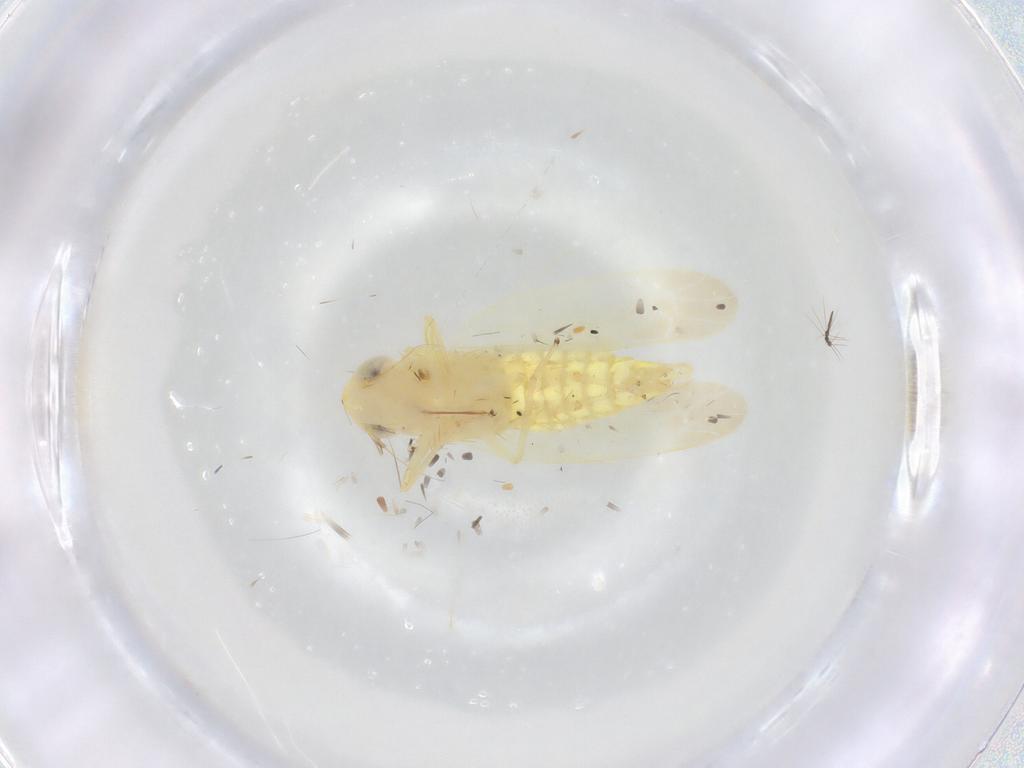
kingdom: Animalia
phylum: Arthropoda
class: Insecta
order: Hemiptera
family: Cicadellidae
